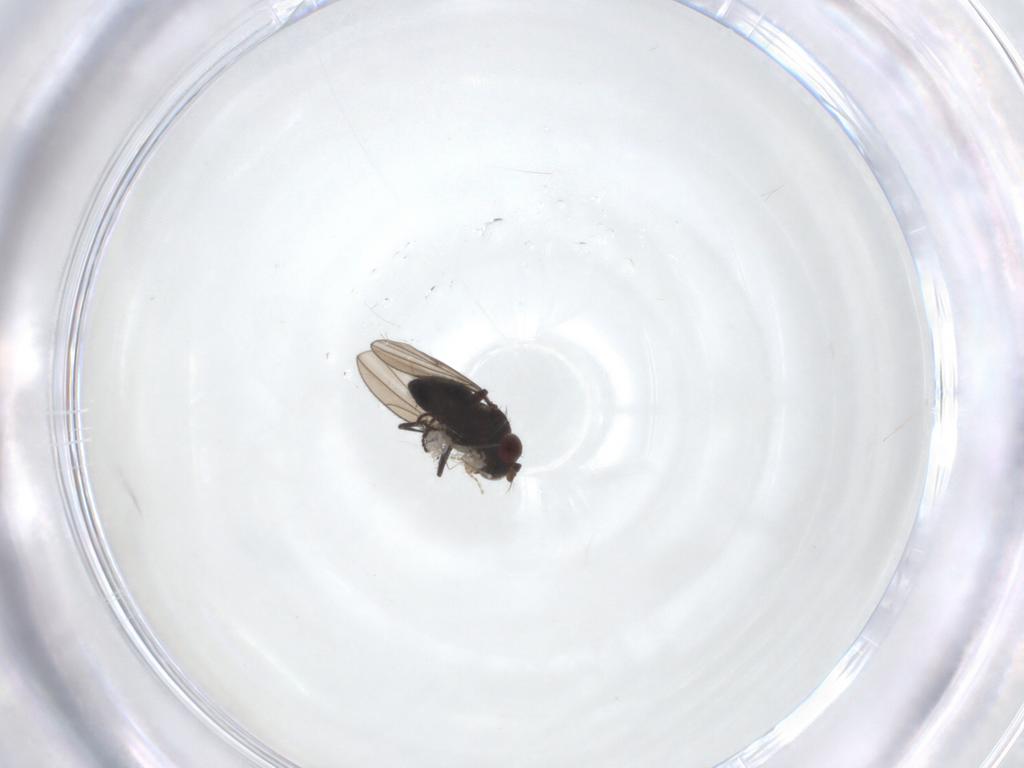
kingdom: Animalia
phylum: Arthropoda
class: Insecta
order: Diptera
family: Ephydridae
